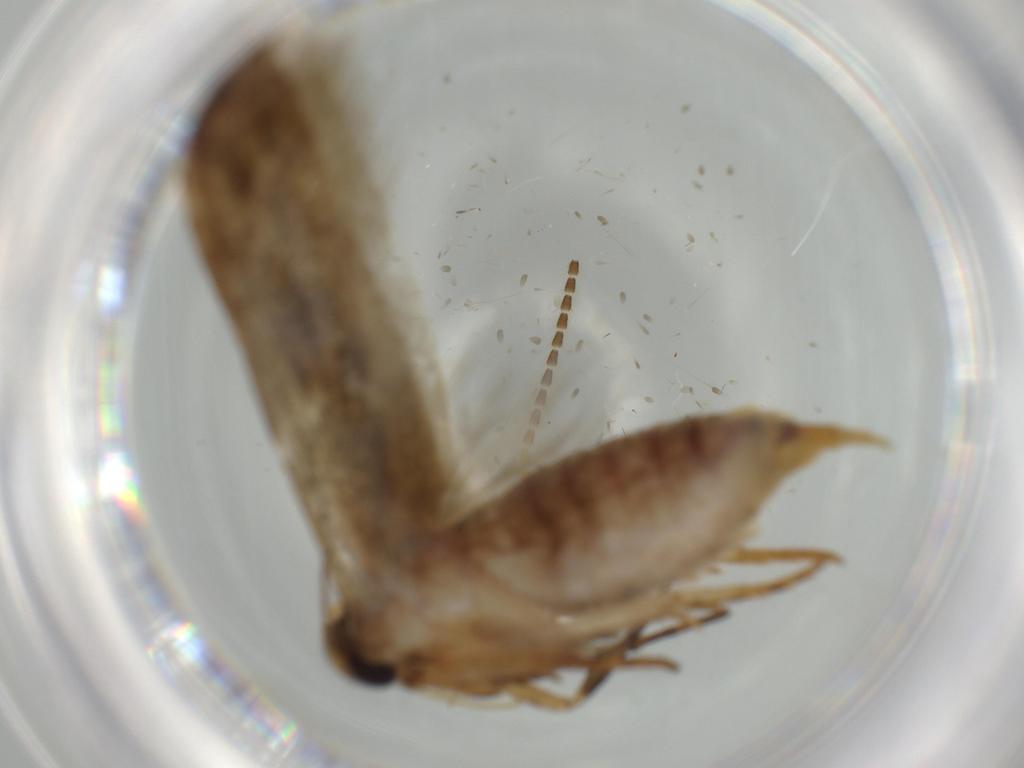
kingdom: Animalia
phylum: Arthropoda
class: Insecta
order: Lepidoptera
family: Blastobasidae
